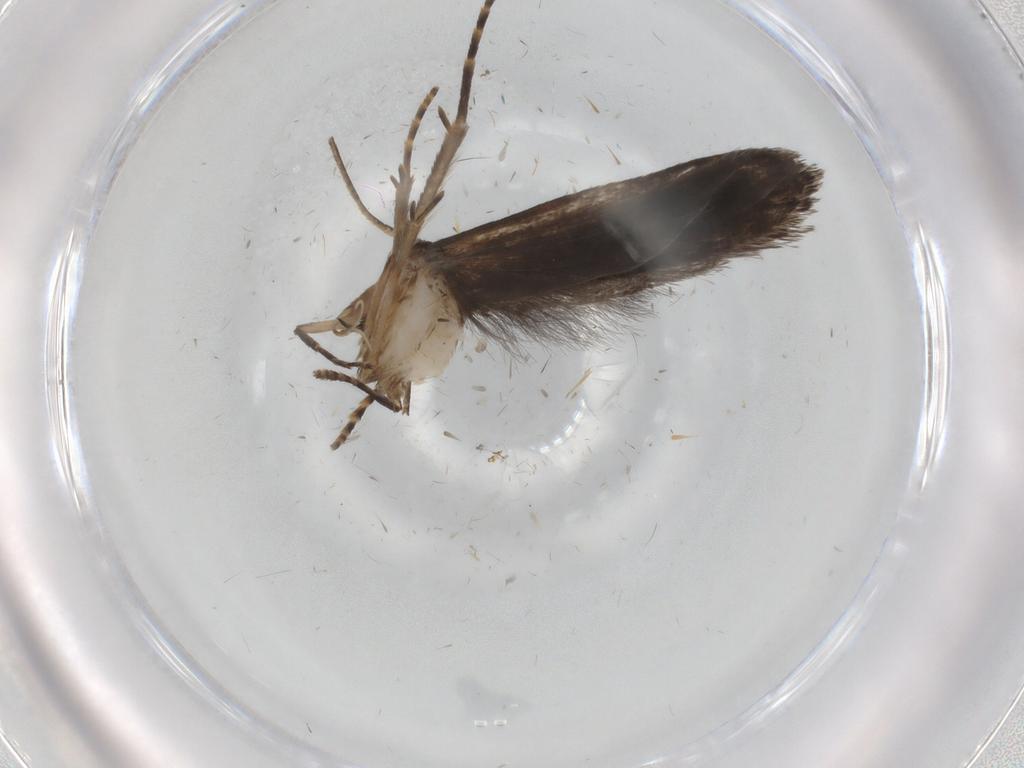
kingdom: Animalia
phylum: Arthropoda
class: Insecta
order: Lepidoptera
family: Gelechiidae
